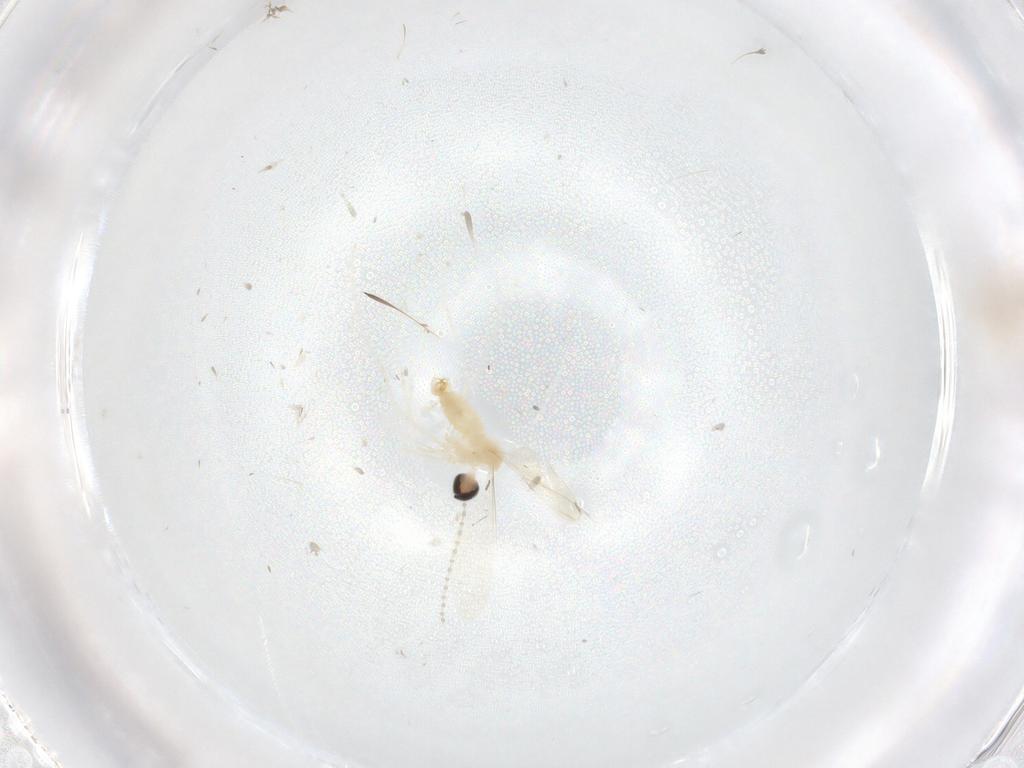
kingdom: Animalia
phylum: Arthropoda
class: Insecta
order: Diptera
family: Cecidomyiidae
